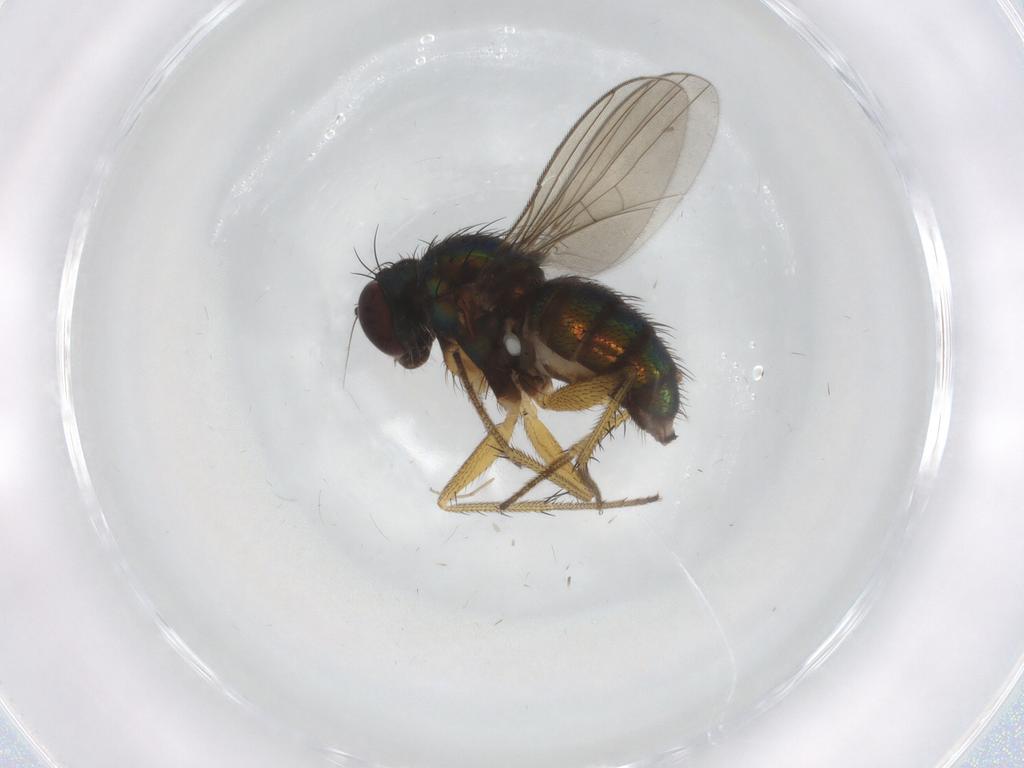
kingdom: Animalia
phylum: Arthropoda
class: Insecta
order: Diptera
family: Dolichopodidae
